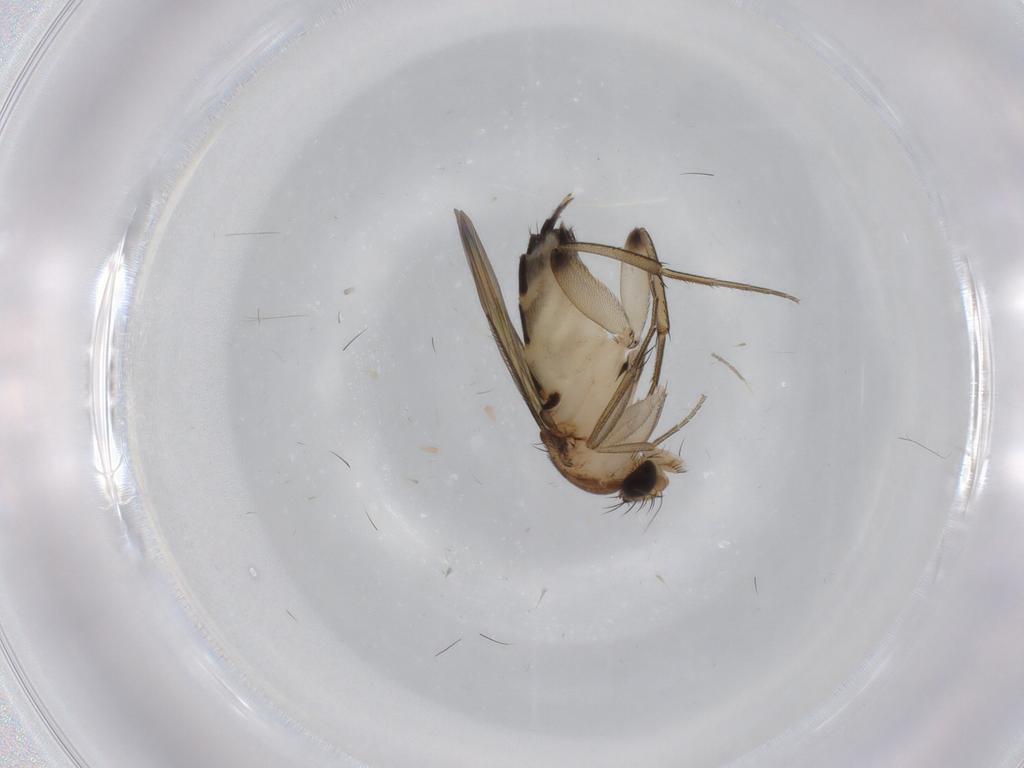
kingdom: Animalia
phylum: Arthropoda
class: Insecta
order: Diptera
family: Phoridae
